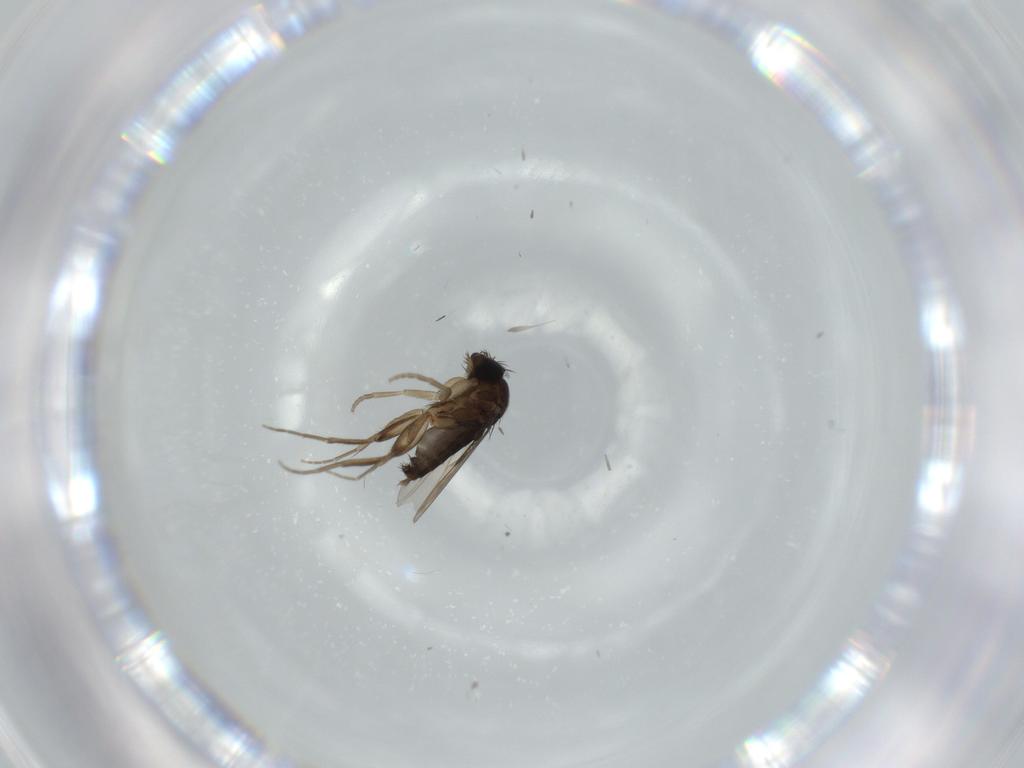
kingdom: Animalia
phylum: Arthropoda
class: Insecta
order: Diptera
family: Phoridae
